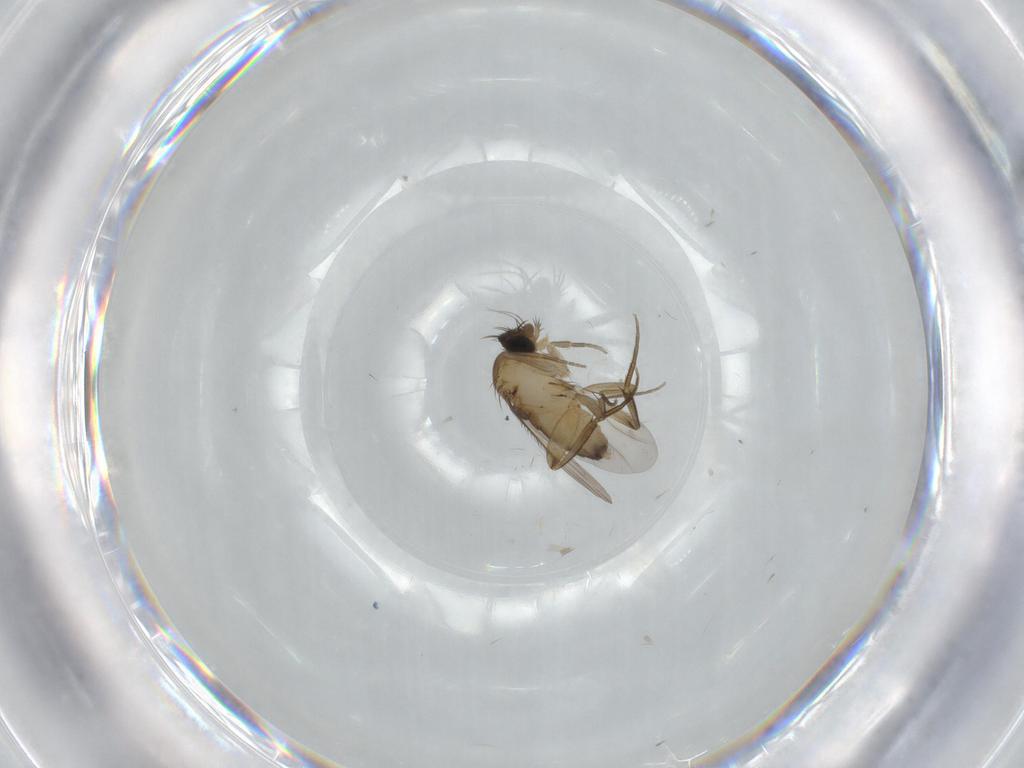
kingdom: Animalia
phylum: Arthropoda
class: Insecta
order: Diptera
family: Phoridae
